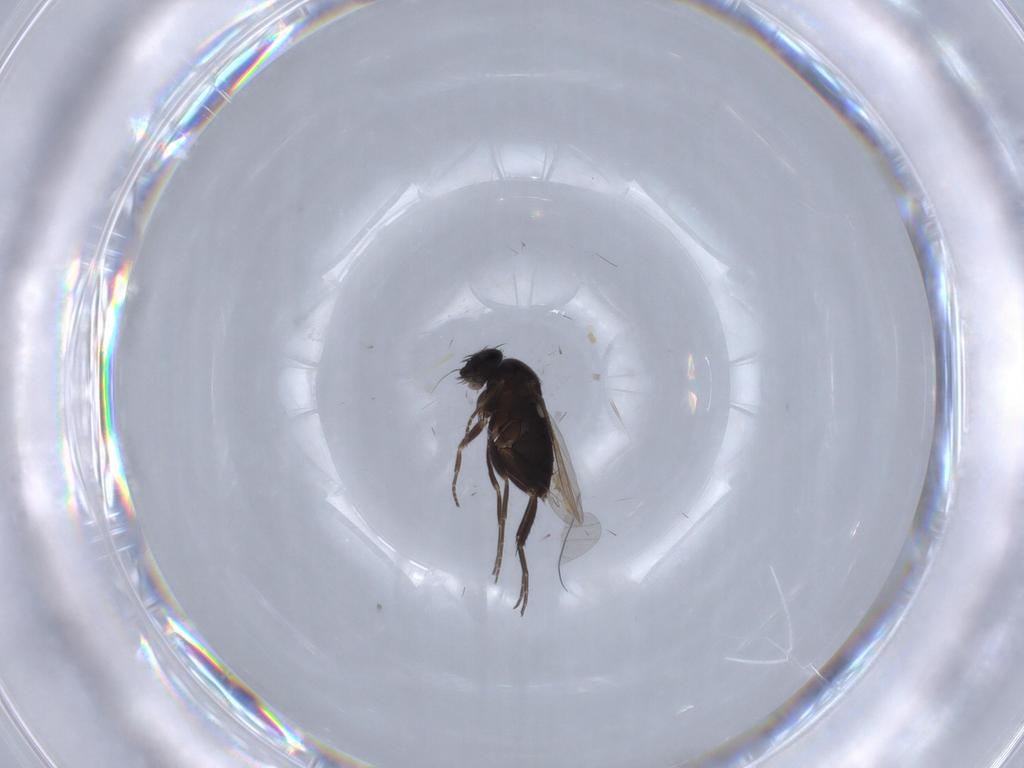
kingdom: Animalia
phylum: Arthropoda
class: Insecta
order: Diptera
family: Phoridae
